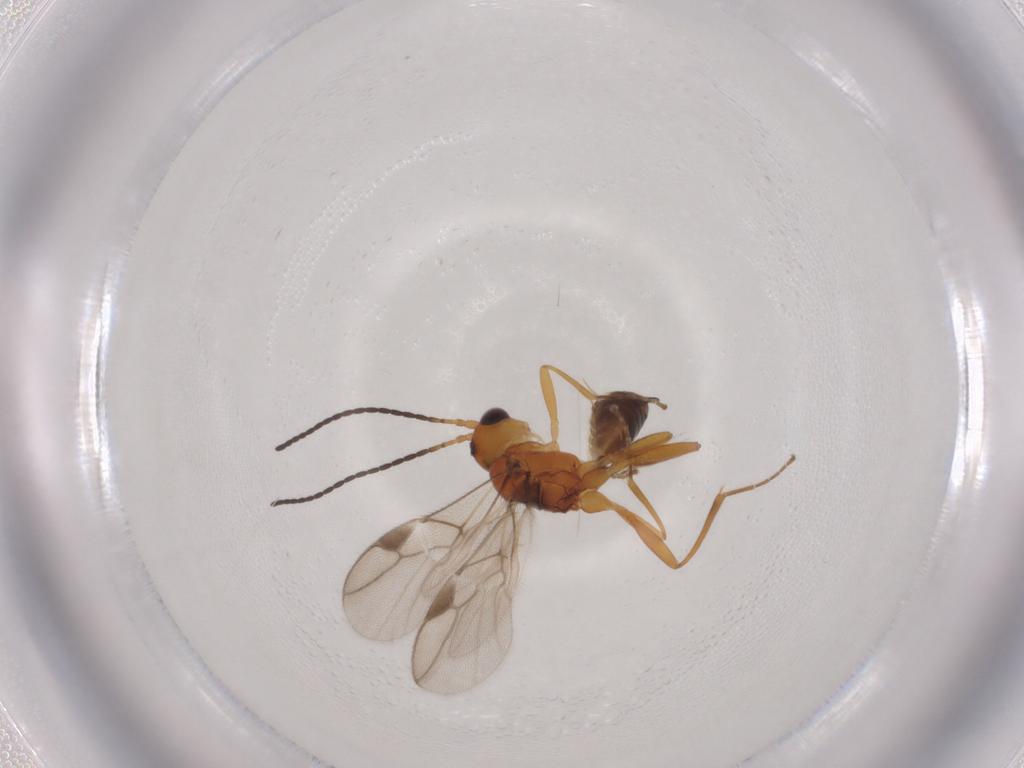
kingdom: Animalia
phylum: Arthropoda
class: Insecta
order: Hymenoptera
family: Braconidae
